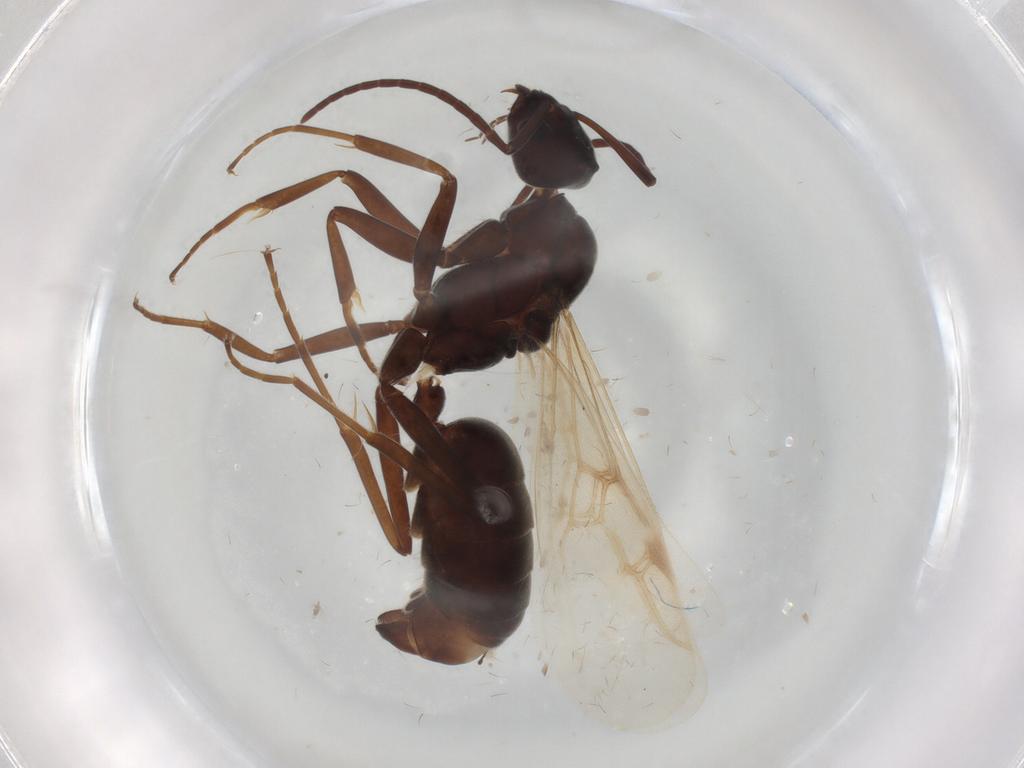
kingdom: Animalia
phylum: Arthropoda
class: Insecta
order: Hymenoptera
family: Formicidae
